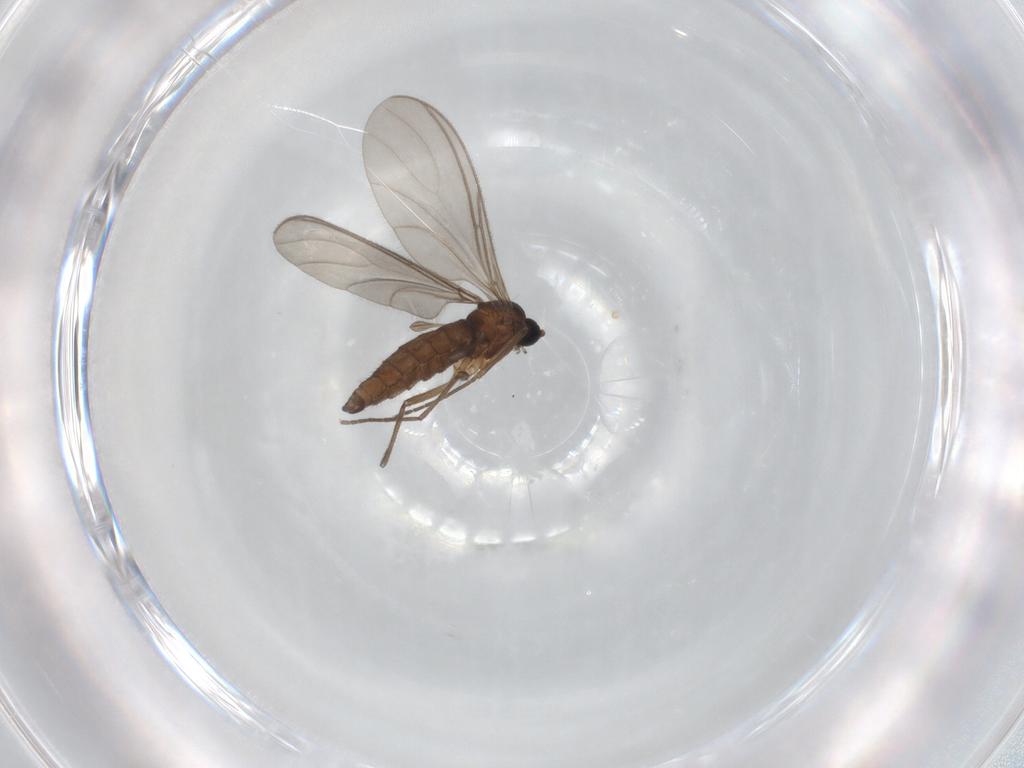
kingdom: Animalia
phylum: Arthropoda
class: Insecta
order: Diptera
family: Sciaridae
